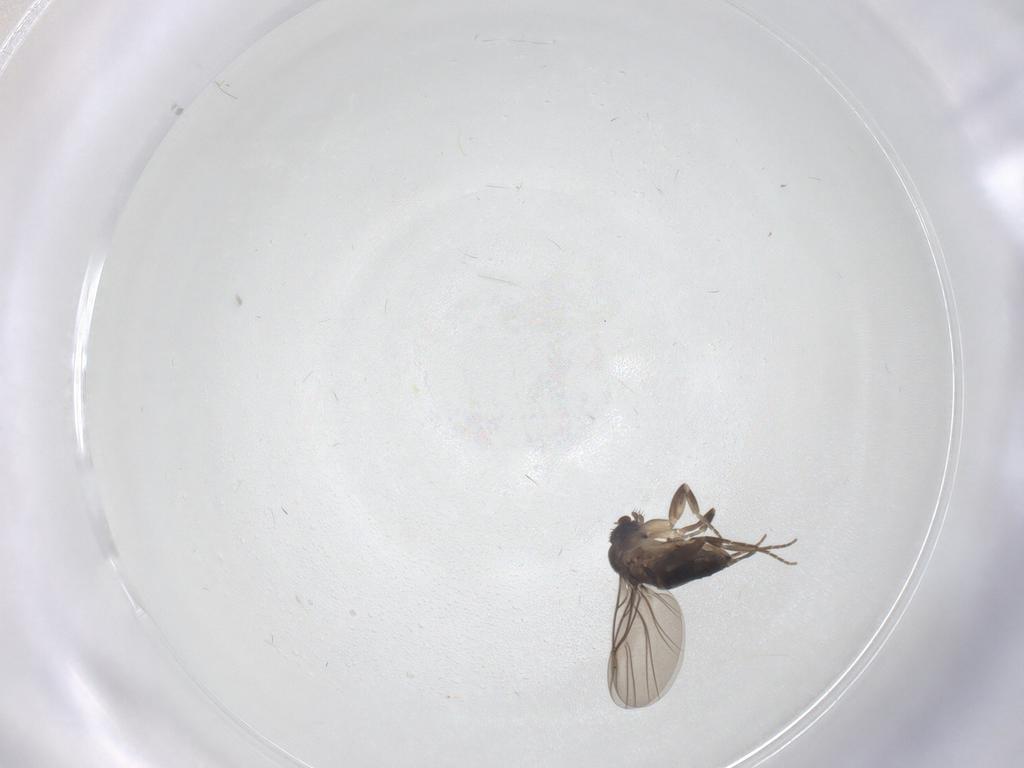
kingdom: Animalia
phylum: Arthropoda
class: Insecta
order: Diptera
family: Phoridae
